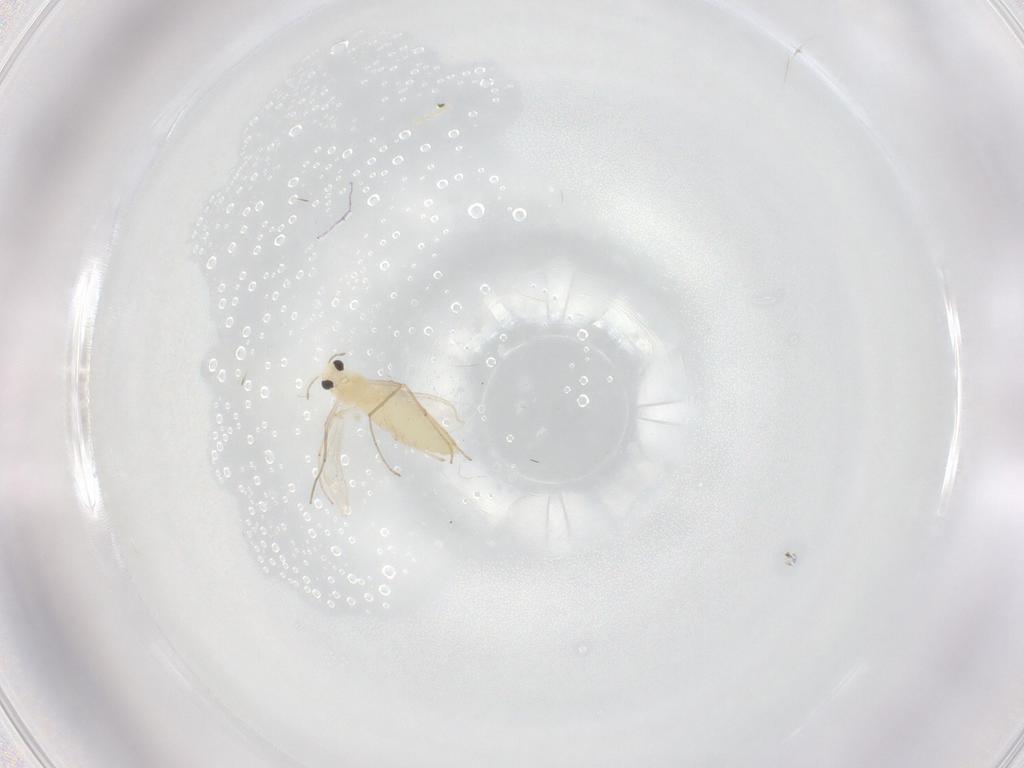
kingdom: Animalia
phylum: Arthropoda
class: Insecta
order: Diptera
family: Chironomidae
